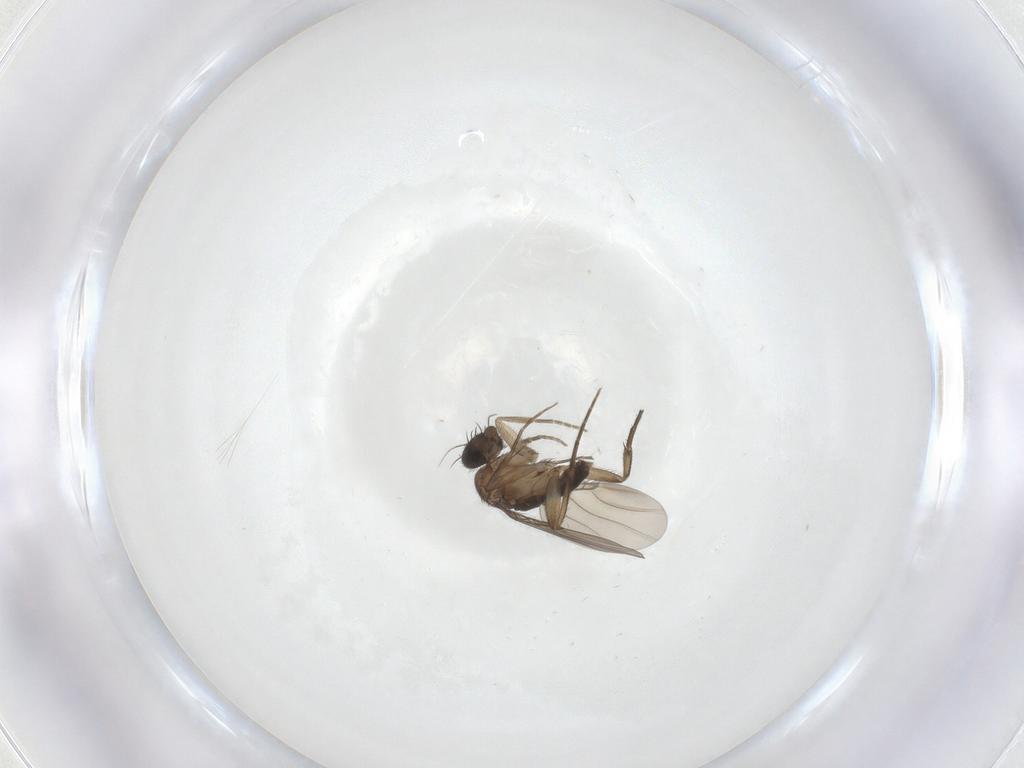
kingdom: Animalia
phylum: Arthropoda
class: Insecta
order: Diptera
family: Phoridae
